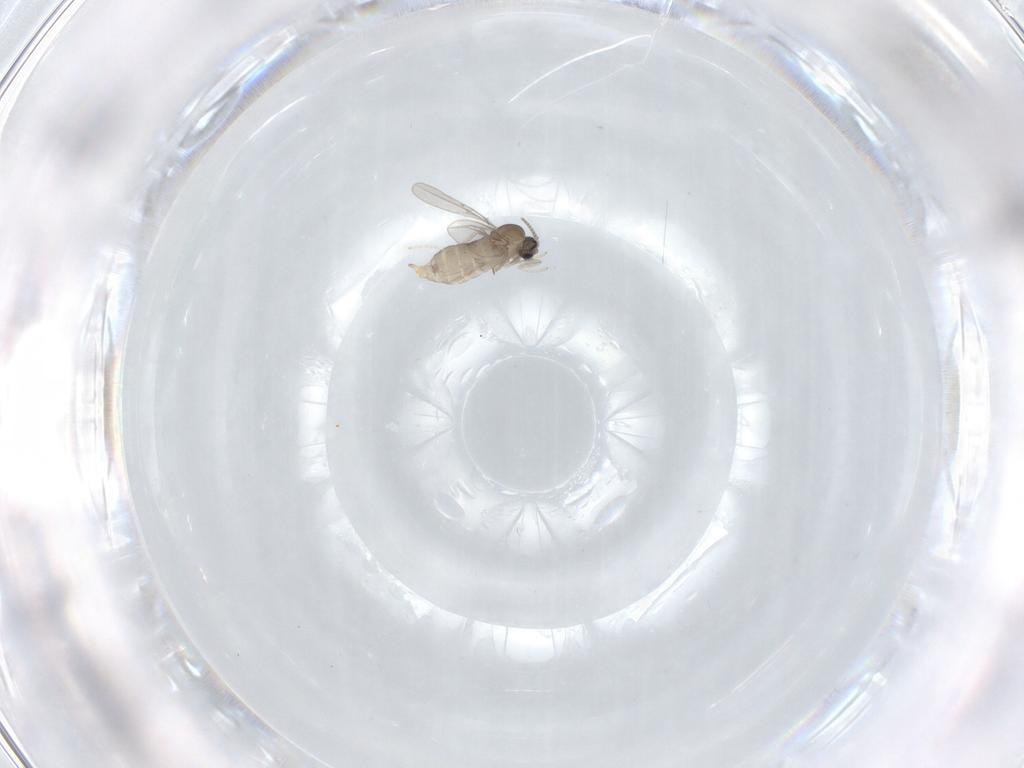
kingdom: Animalia
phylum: Arthropoda
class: Insecta
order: Diptera
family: Cecidomyiidae
